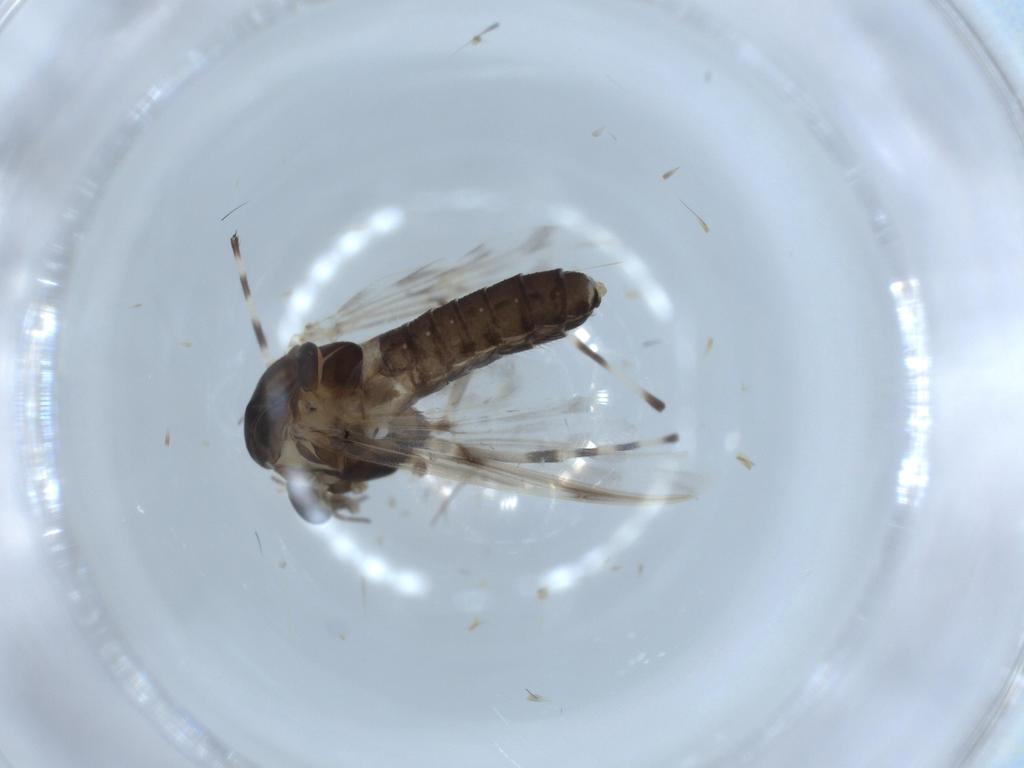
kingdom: Animalia
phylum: Arthropoda
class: Insecta
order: Diptera
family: Chironomidae
